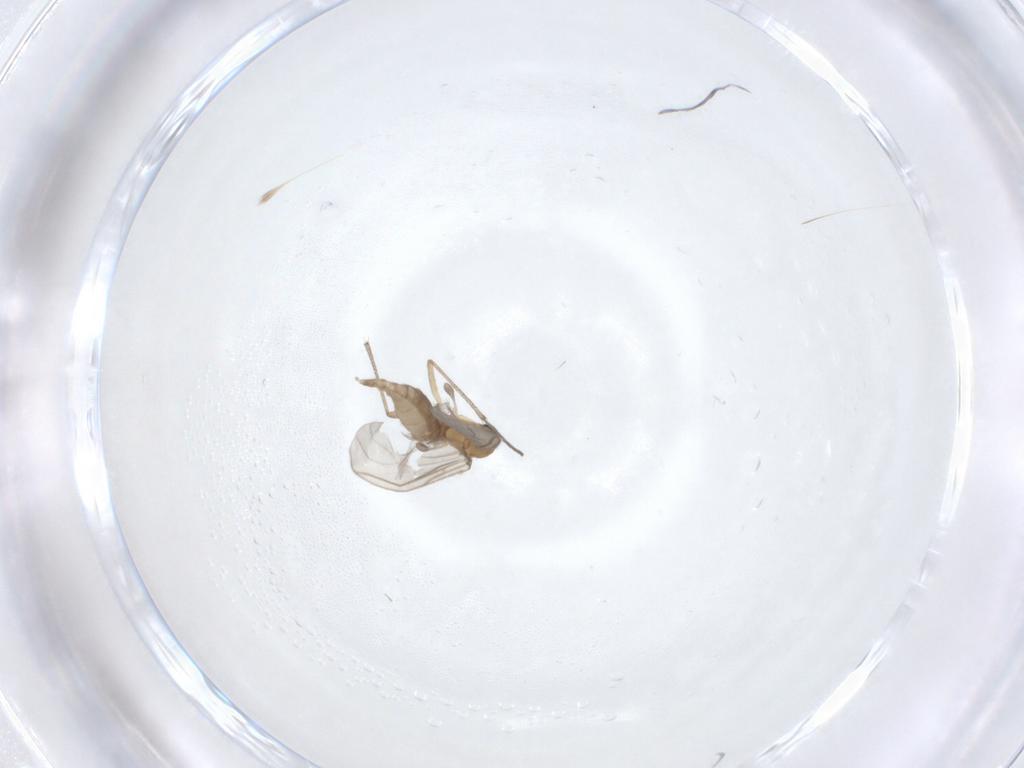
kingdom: Animalia
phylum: Arthropoda
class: Insecta
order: Diptera
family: Sciaridae
